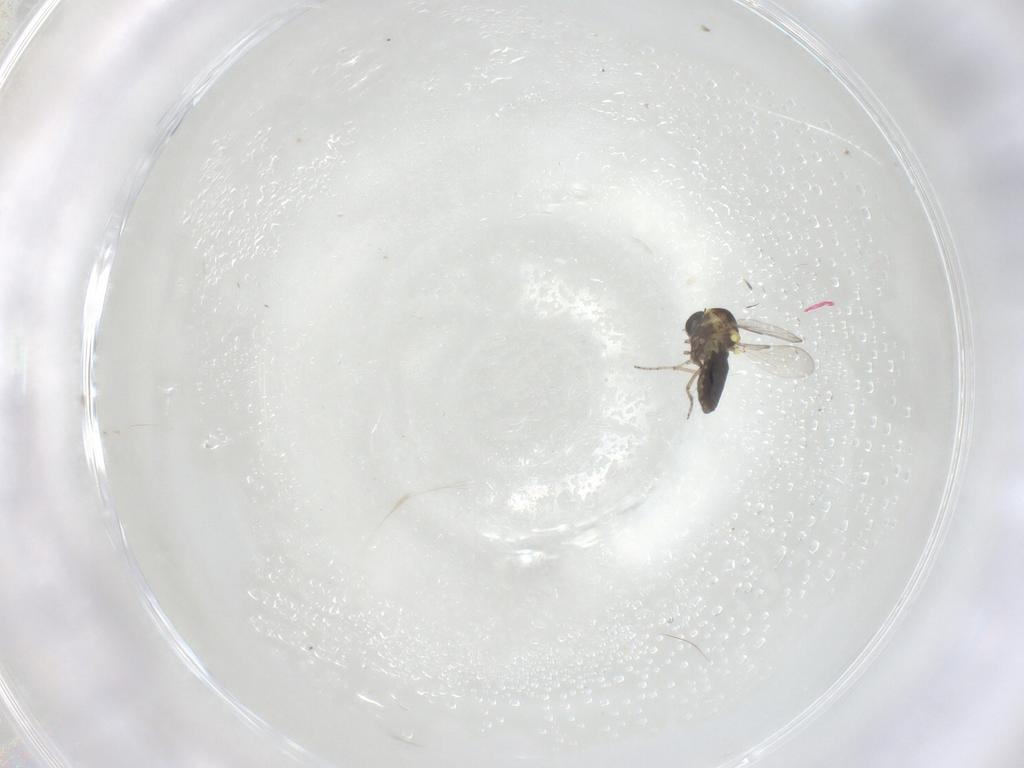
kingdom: Animalia
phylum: Arthropoda
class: Insecta
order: Diptera
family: Ceratopogonidae
